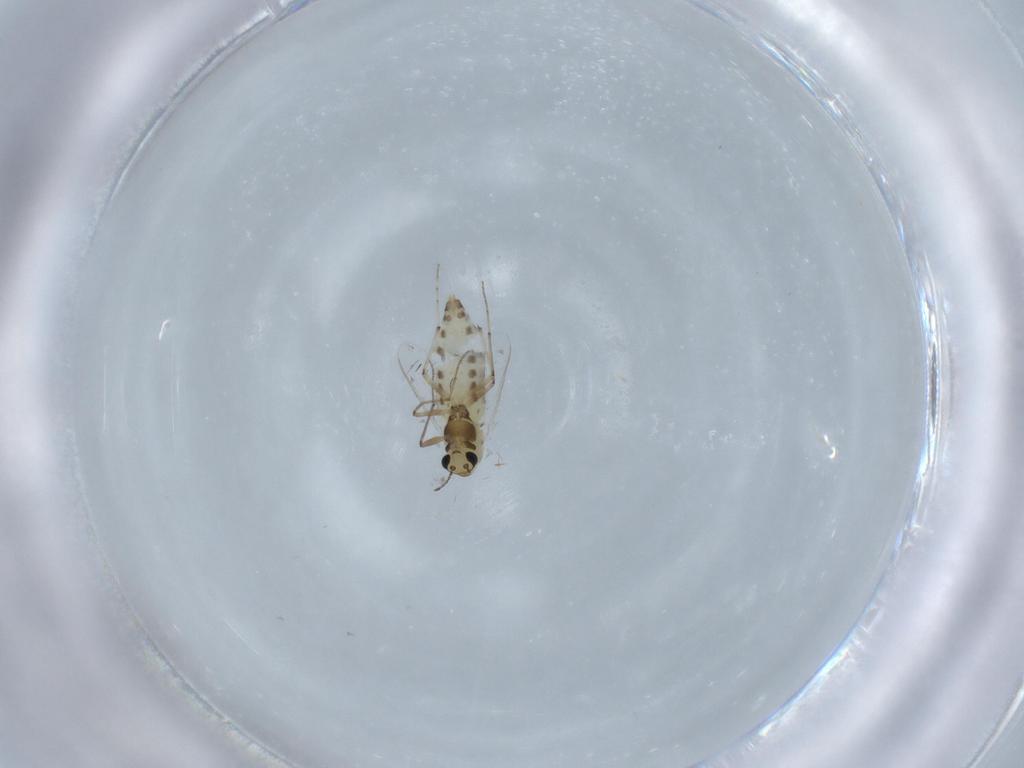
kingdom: Animalia
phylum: Arthropoda
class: Insecta
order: Diptera
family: Chironomidae
